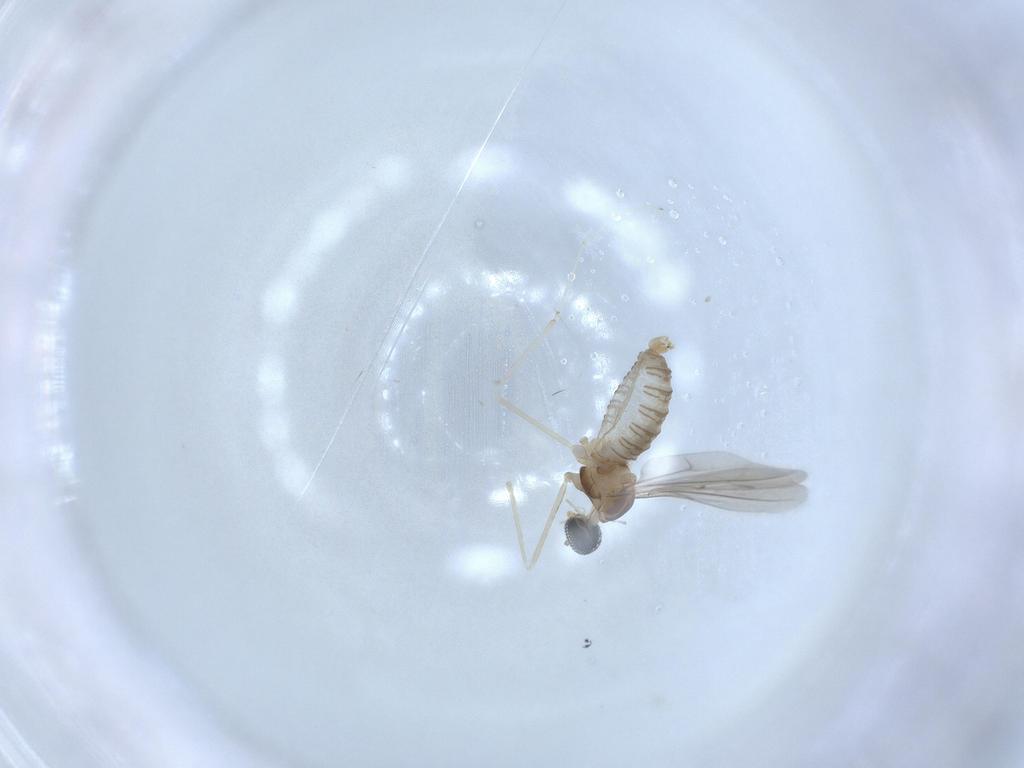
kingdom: Animalia
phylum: Arthropoda
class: Insecta
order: Diptera
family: Cecidomyiidae
